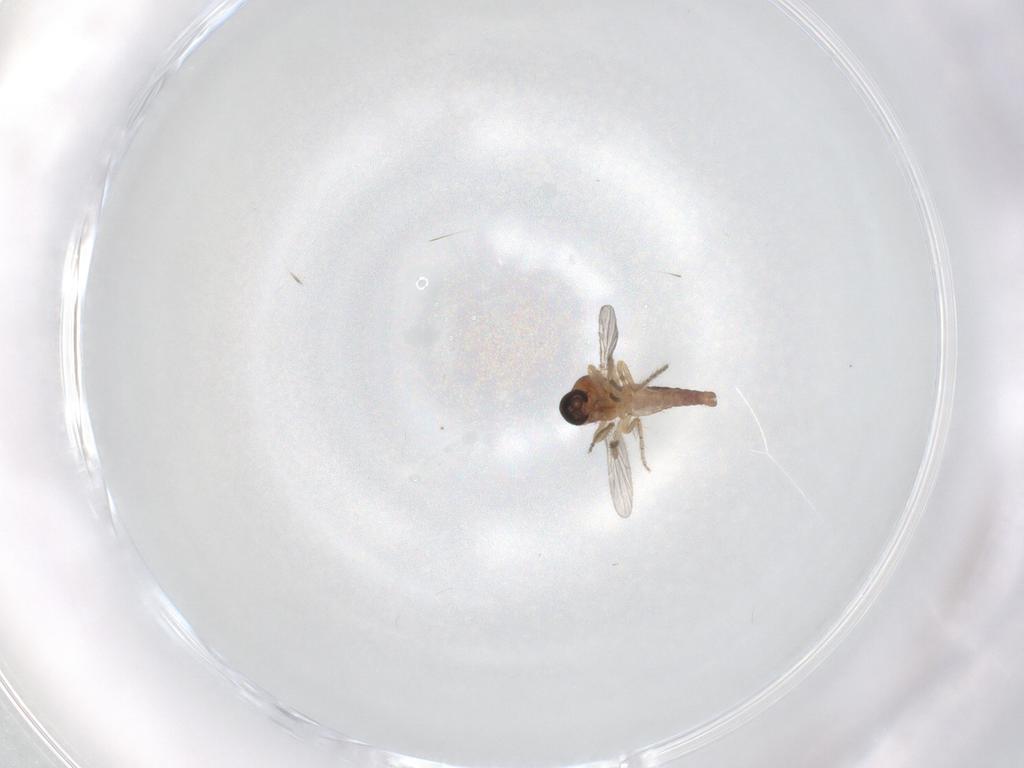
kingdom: Animalia
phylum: Arthropoda
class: Insecta
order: Diptera
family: Ceratopogonidae
